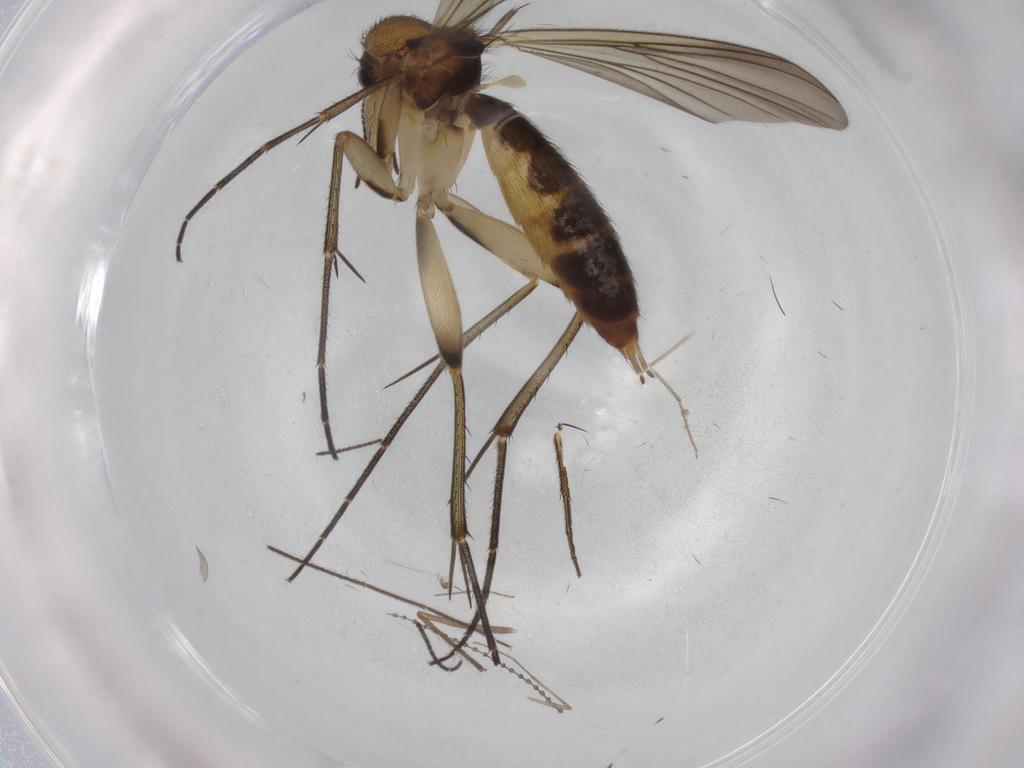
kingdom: Animalia
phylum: Arthropoda
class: Insecta
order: Diptera
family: Mycetophilidae
